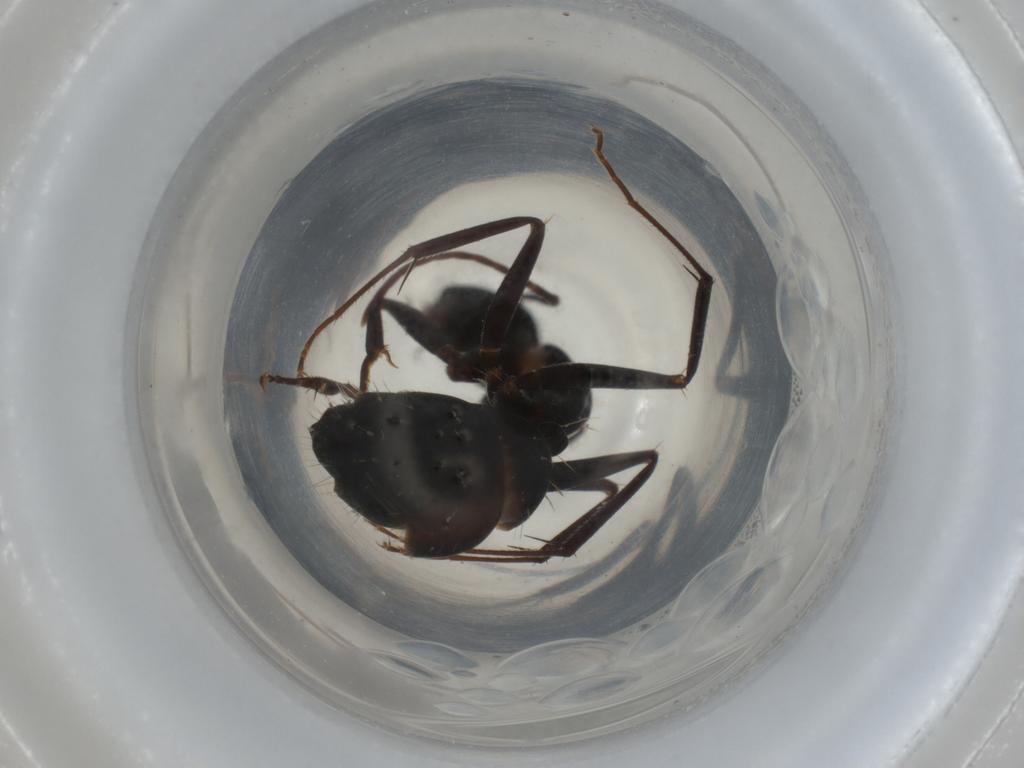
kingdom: Animalia
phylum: Arthropoda
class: Insecta
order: Hymenoptera
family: Formicidae
